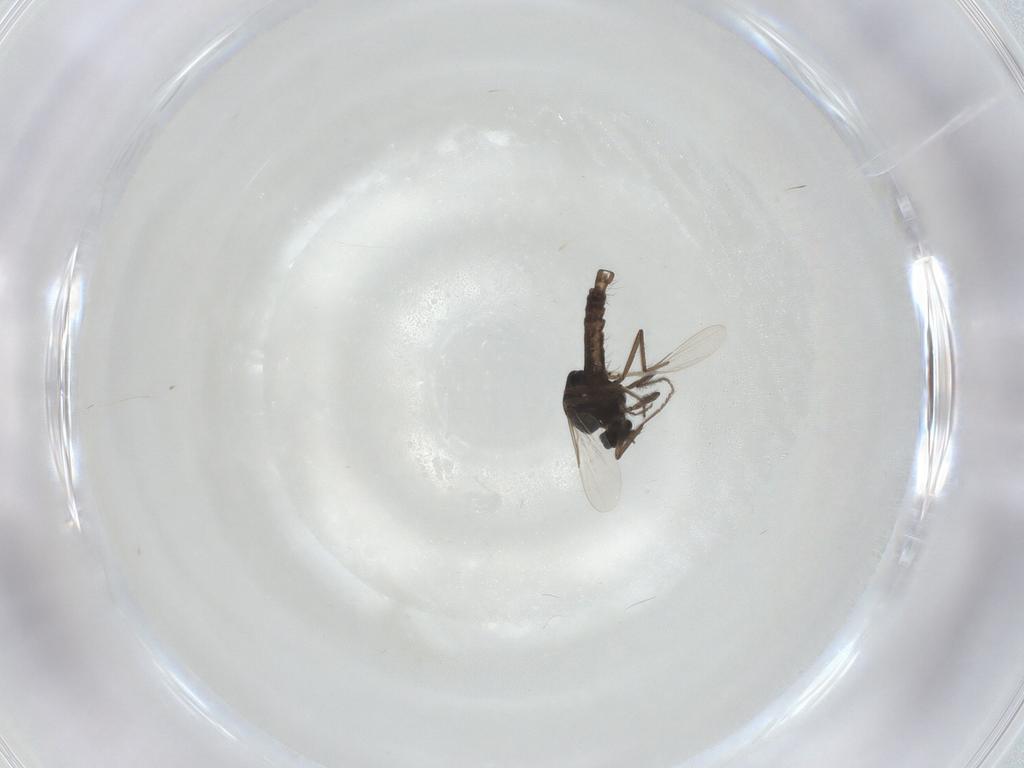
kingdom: Animalia
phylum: Arthropoda
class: Insecta
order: Diptera
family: Ceratopogonidae
